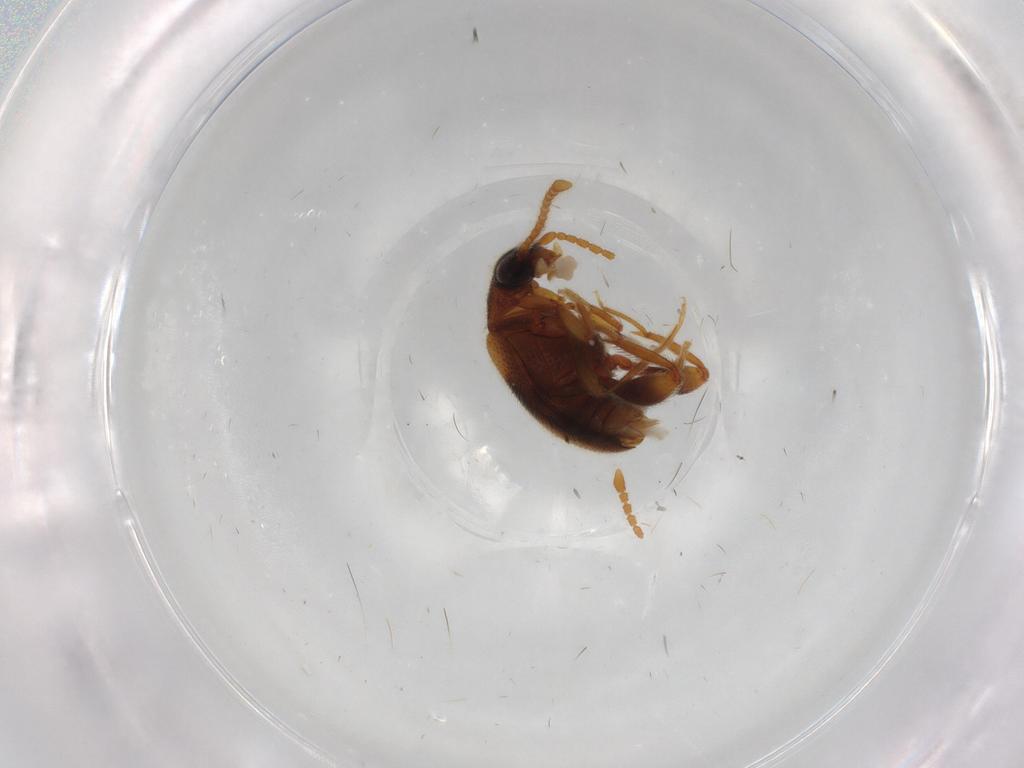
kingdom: Animalia
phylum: Arthropoda
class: Insecta
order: Coleoptera
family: Aderidae
